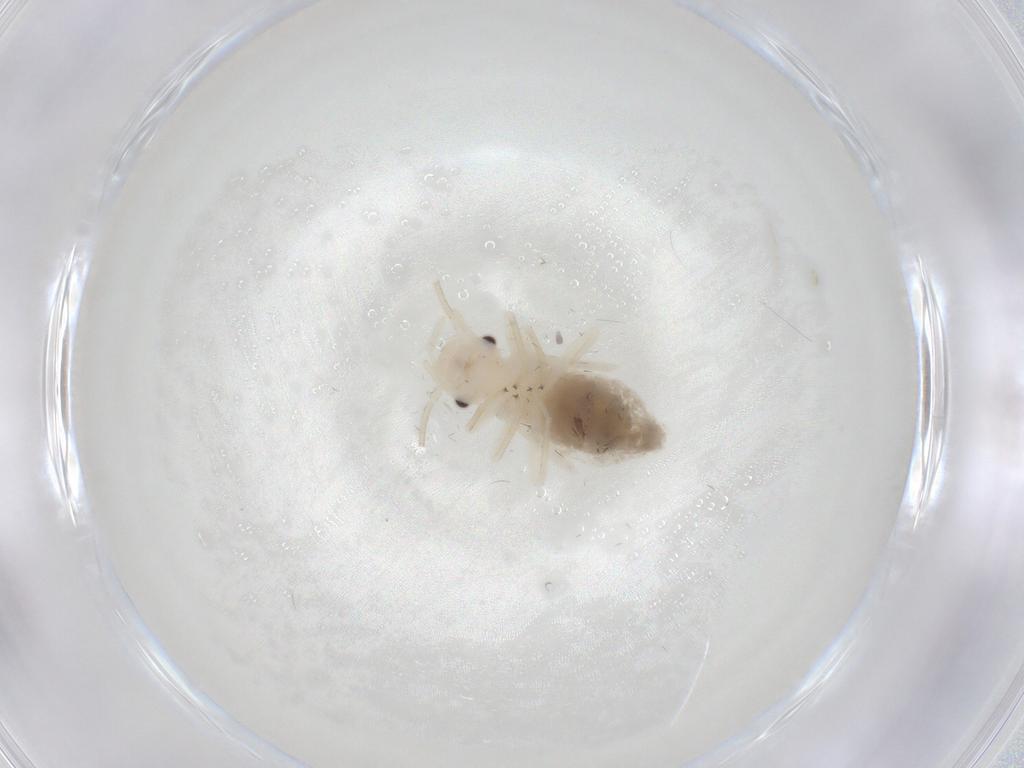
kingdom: Animalia
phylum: Arthropoda
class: Insecta
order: Psocodea
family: Caeciliusidae
